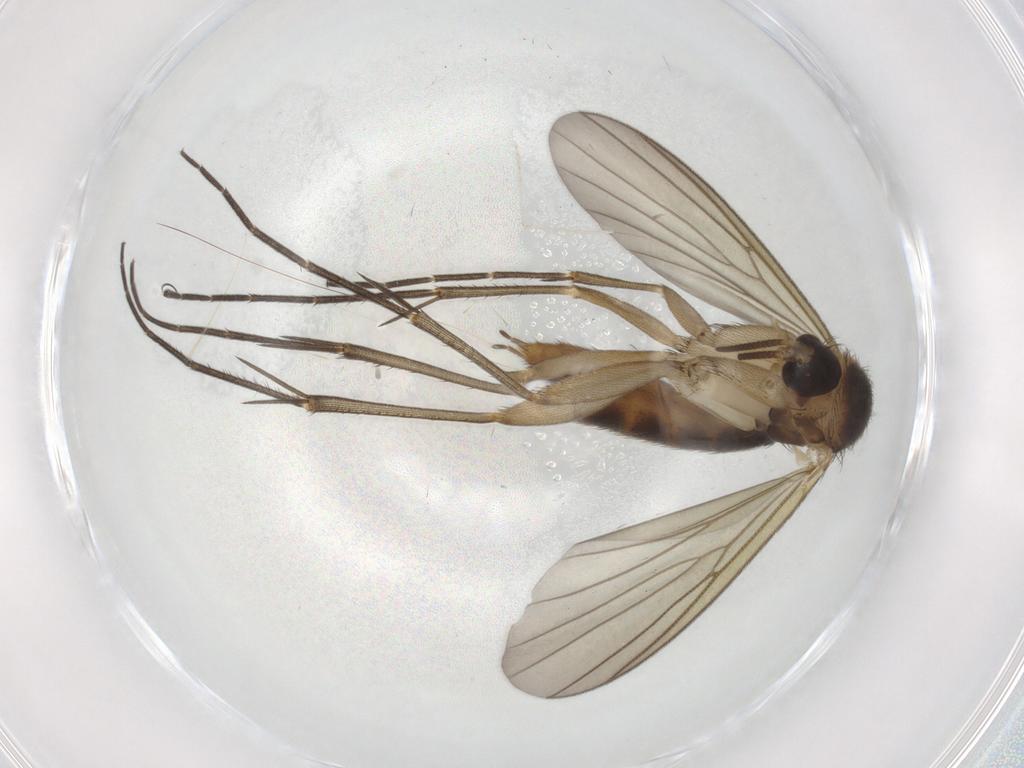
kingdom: Animalia
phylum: Arthropoda
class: Insecta
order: Diptera
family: Mycetophilidae
